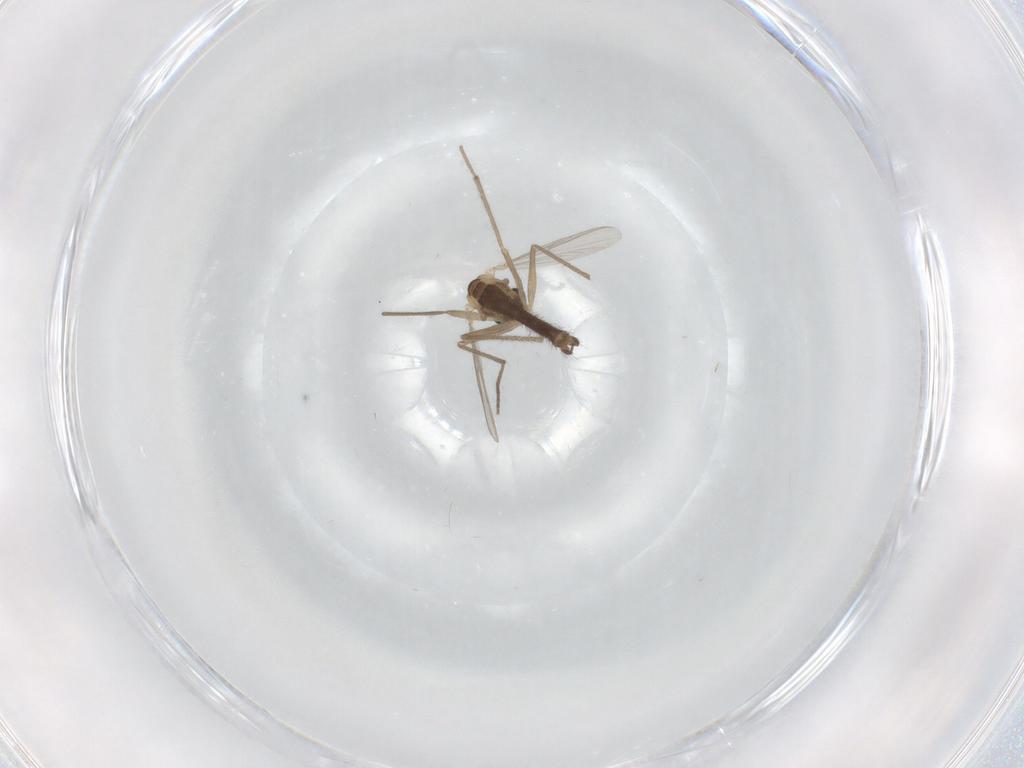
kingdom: Animalia
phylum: Arthropoda
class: Insecta
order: Diptera
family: Chironomidae
